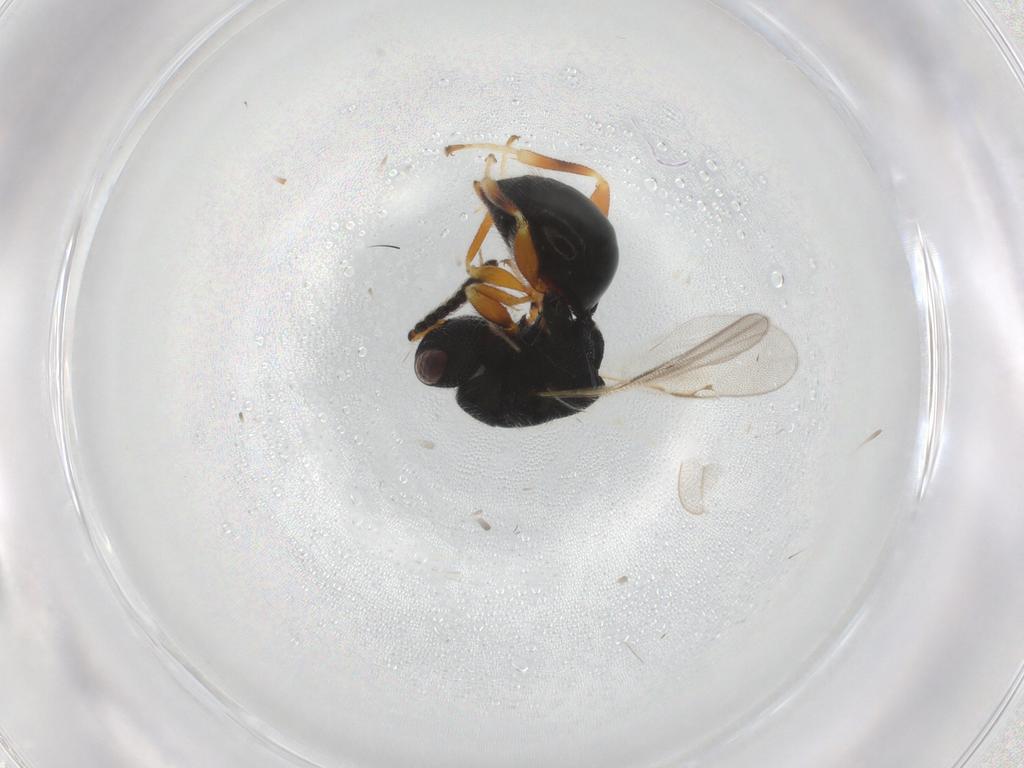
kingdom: Animalia
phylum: Arthropoda
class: Insecta
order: Hymenoptera
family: Eurytomidae
